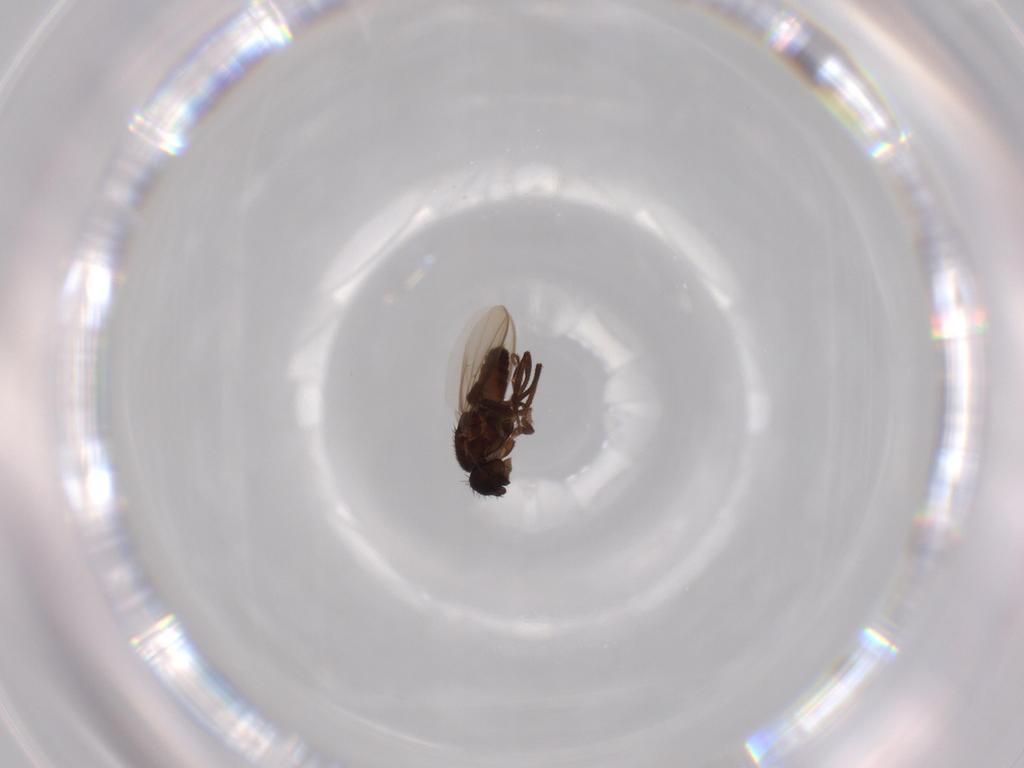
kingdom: Animalia
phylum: Arthropoda
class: Insecta
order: Diptera
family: Sphaeroceridae
